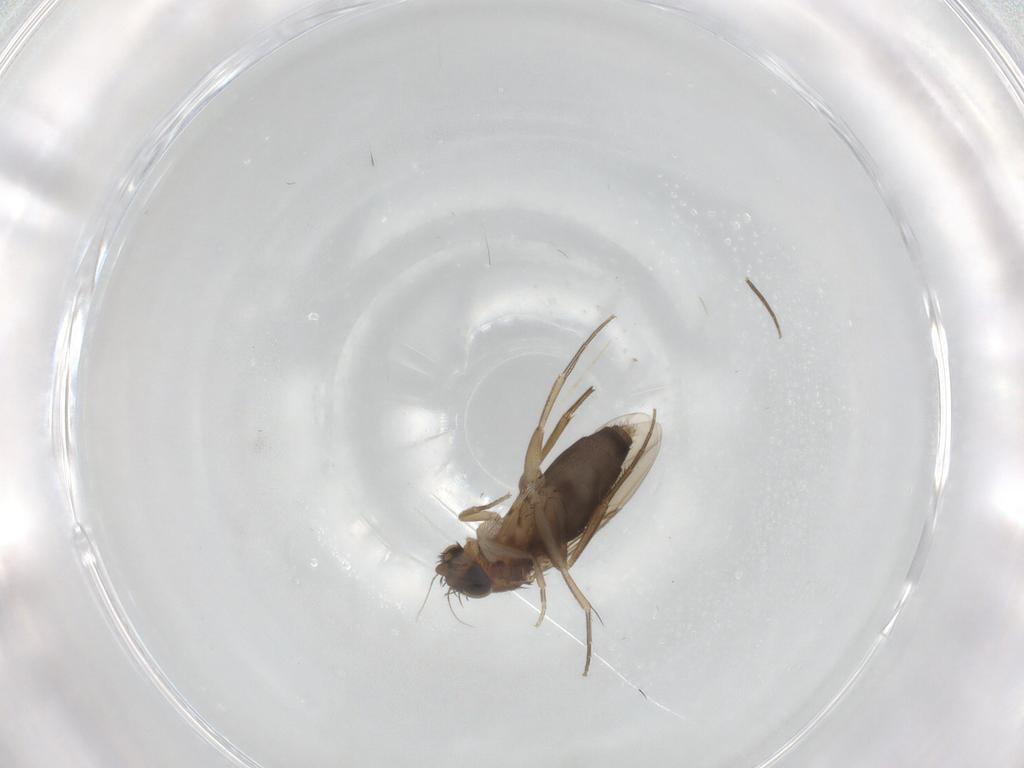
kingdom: Animalia
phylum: Arthropoda
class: Insecta
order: Diptera
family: Phoridae
